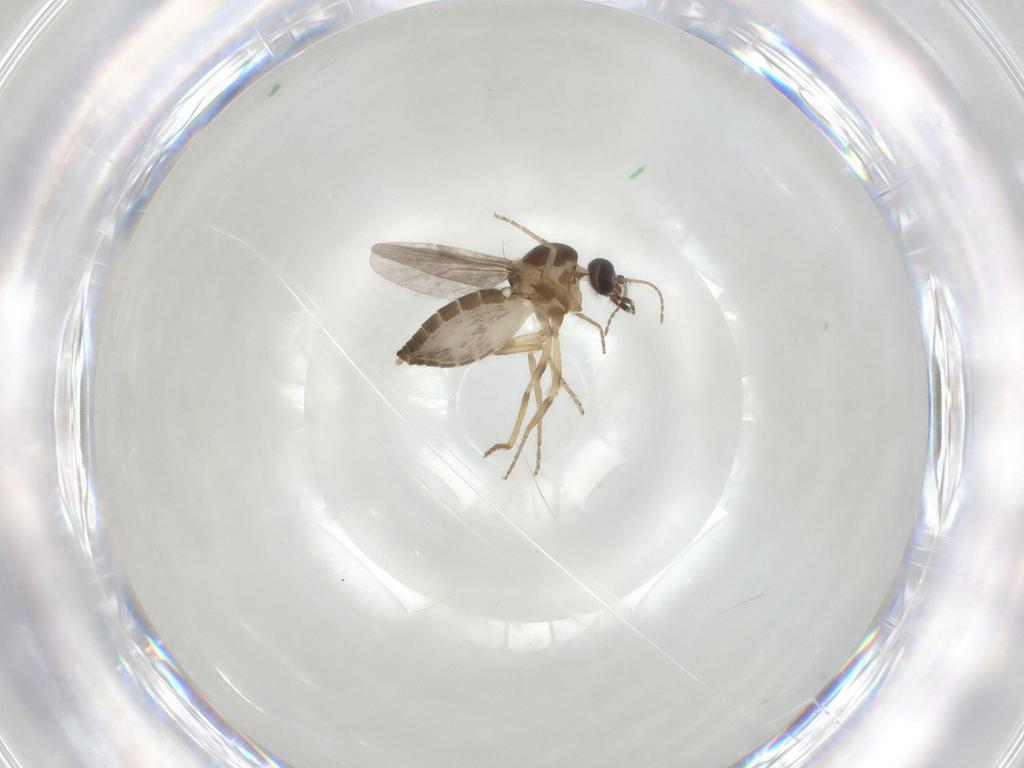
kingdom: Animalia
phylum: Arthropoda
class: Insecta
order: Diptera
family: Ceratopogonidae
